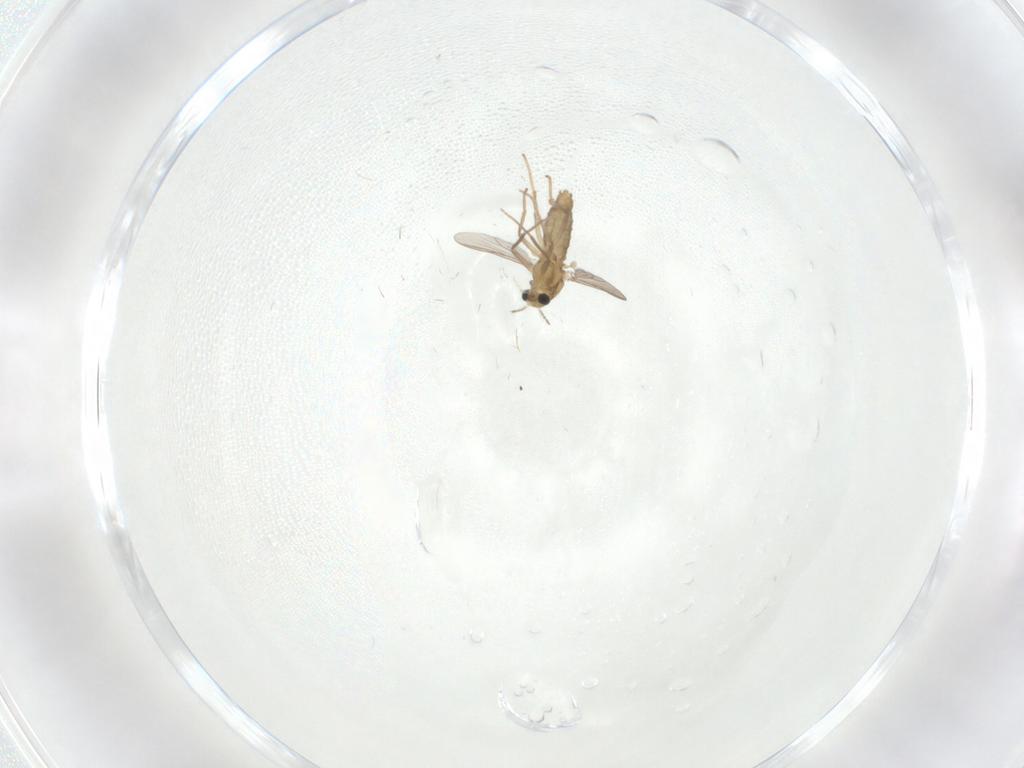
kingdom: Animalia
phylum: Arthropoda
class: Insecta
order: Diptera
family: Chironomidae
